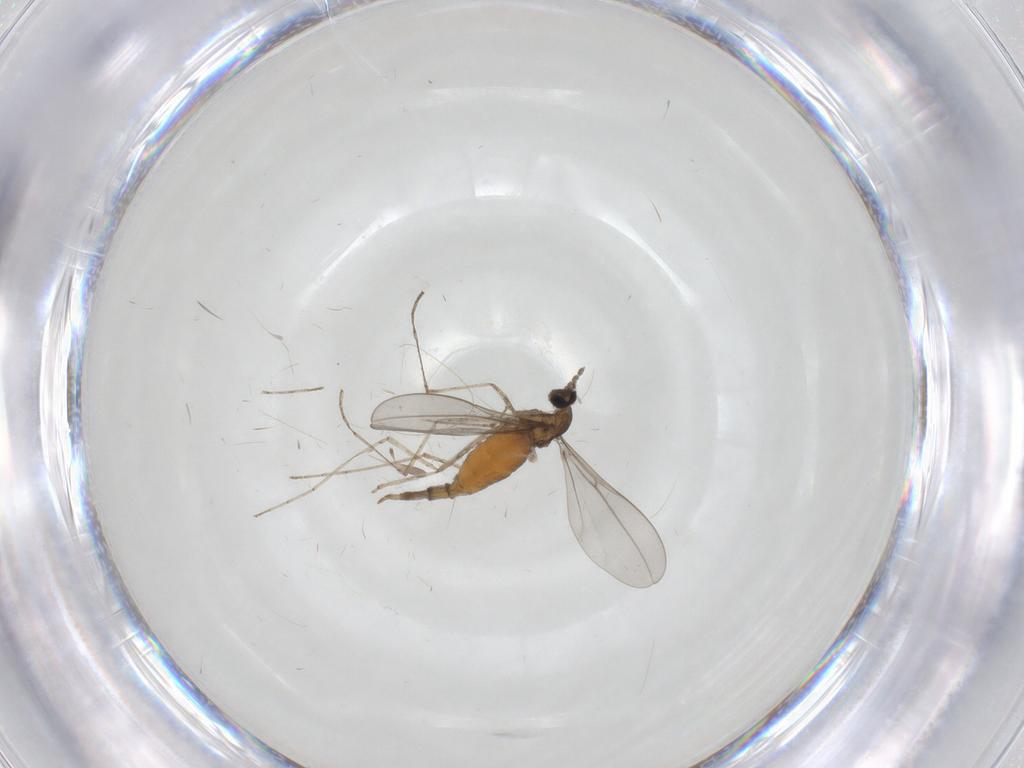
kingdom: Animalia
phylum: Arthropoda
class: Insecta
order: Diptera
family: Cecidomyiidae
